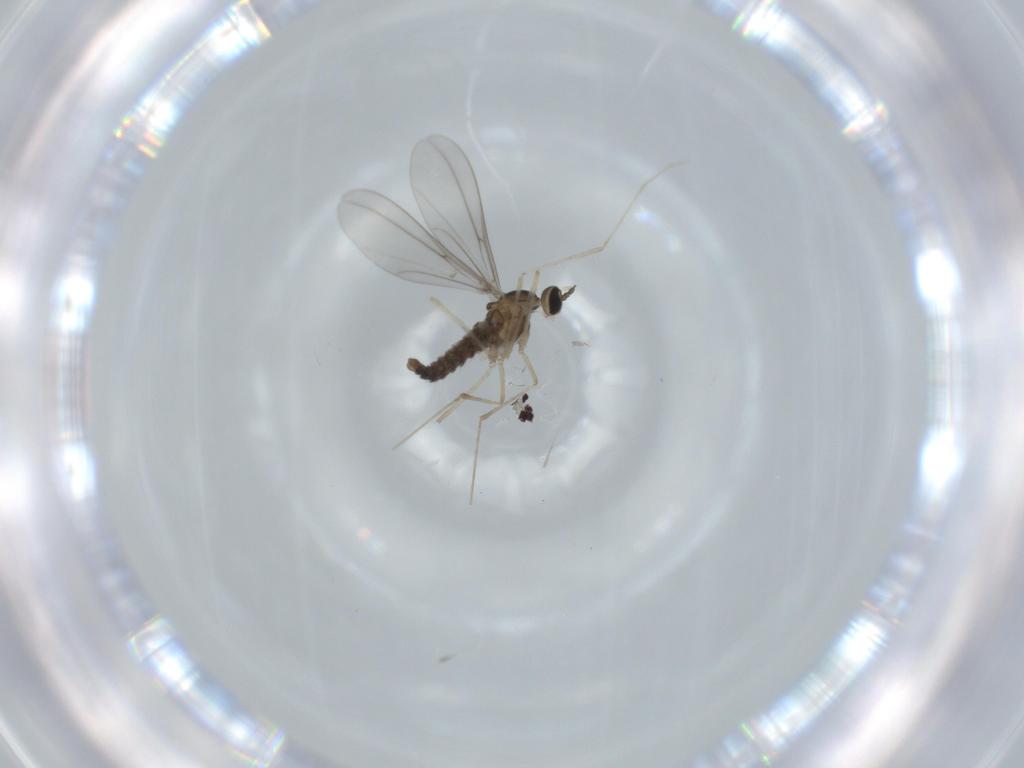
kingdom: Animalia
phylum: Arthropoda
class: Insecta
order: Diptera
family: Cecidomyiidae
